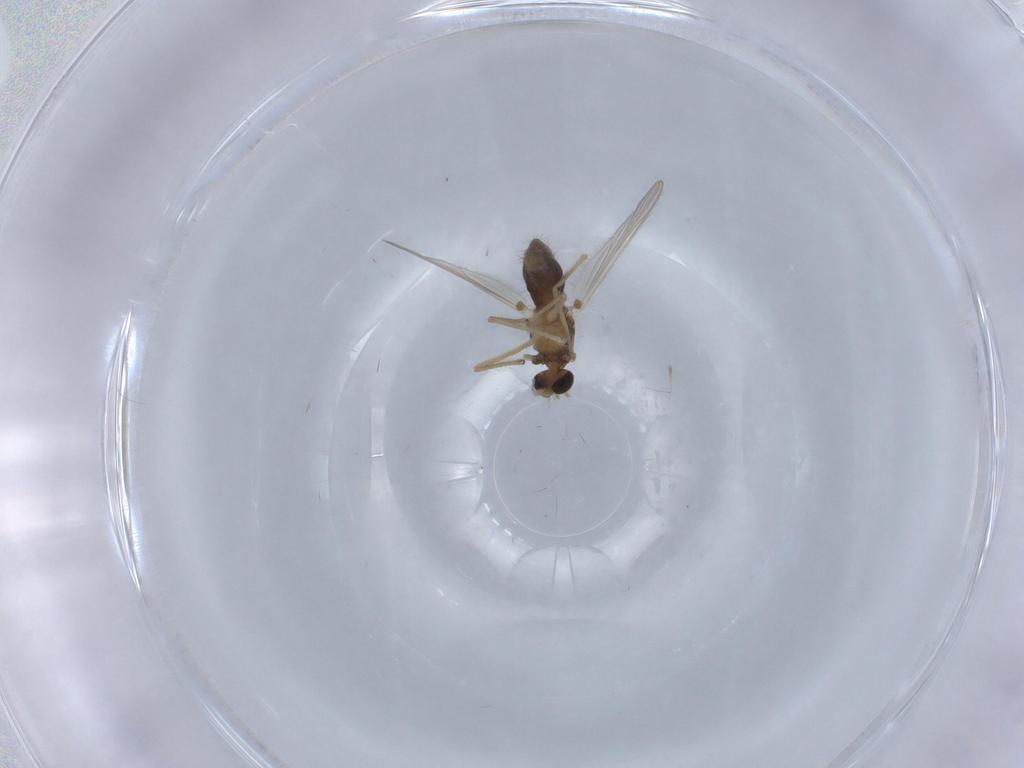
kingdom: Animalia
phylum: Arthropoda
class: Insecta
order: Diptera
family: Chironomidae
